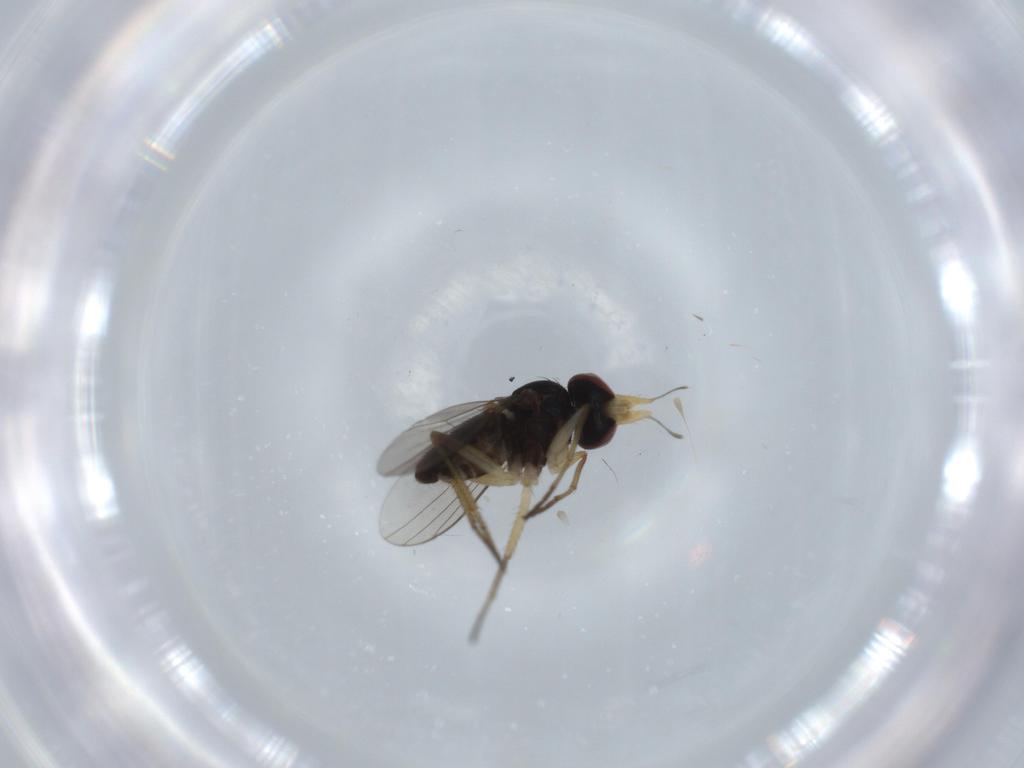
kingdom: Animalia
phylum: Arthropoda
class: Insecta
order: Diptera
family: Dolichopodidae
